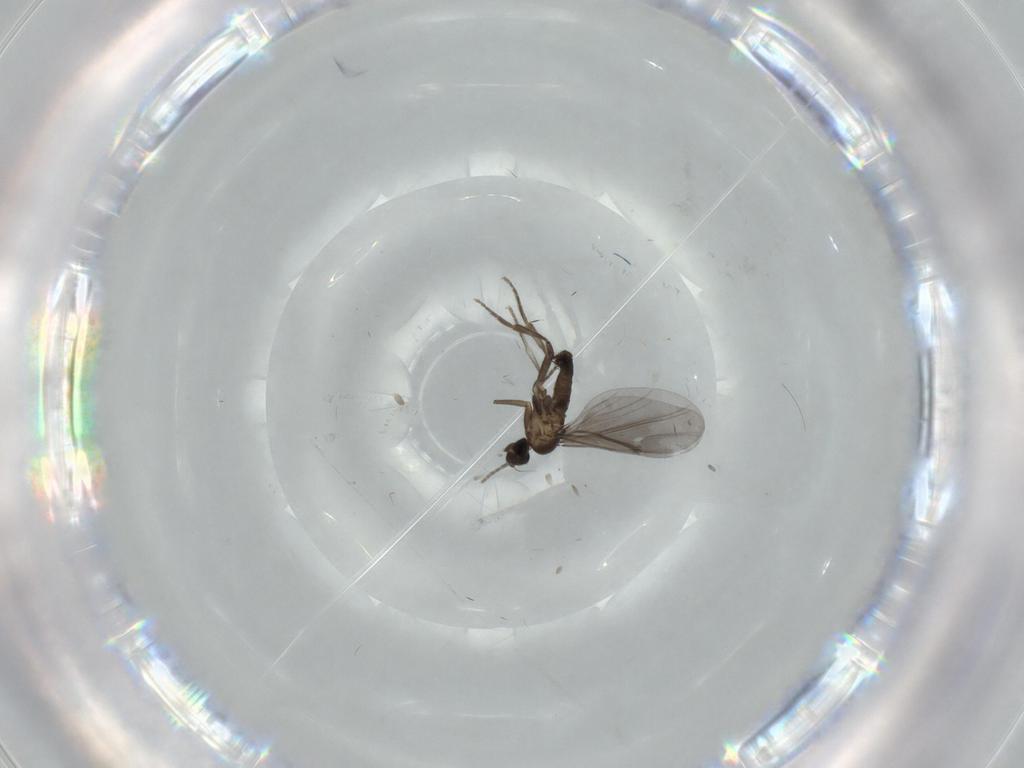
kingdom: Animalia
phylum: Arthropoda
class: Insecta
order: Diptera
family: Phoridae
